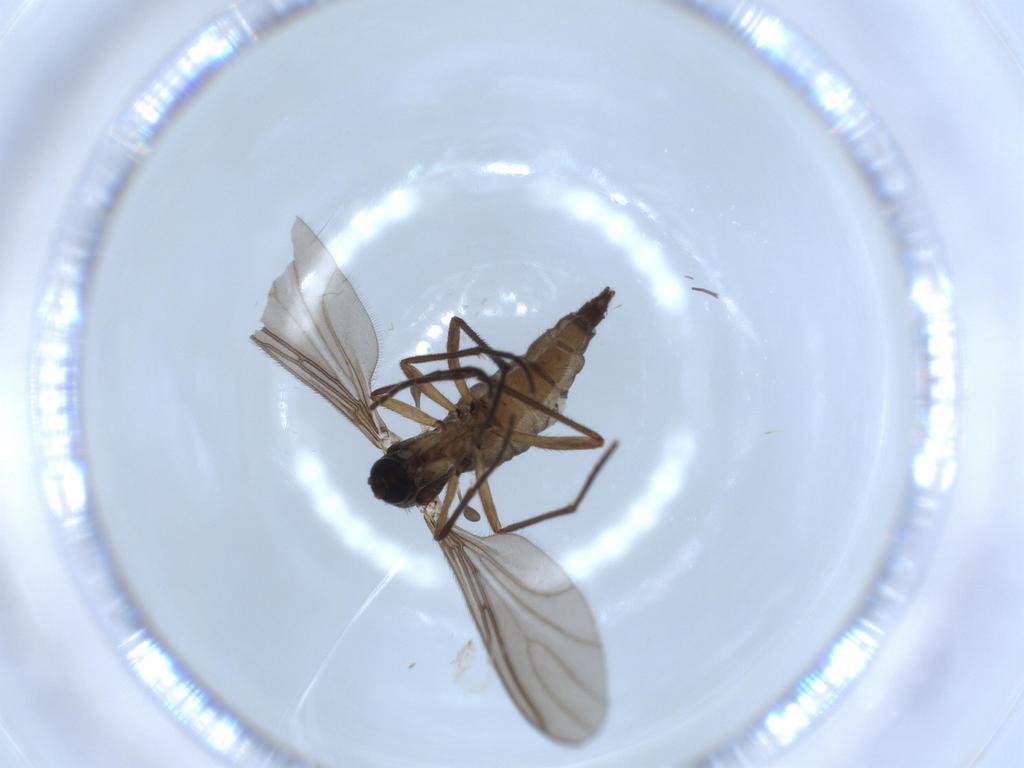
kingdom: Animalia
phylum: Arthropoda
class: Insecta
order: Diptera
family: Sciaridae
